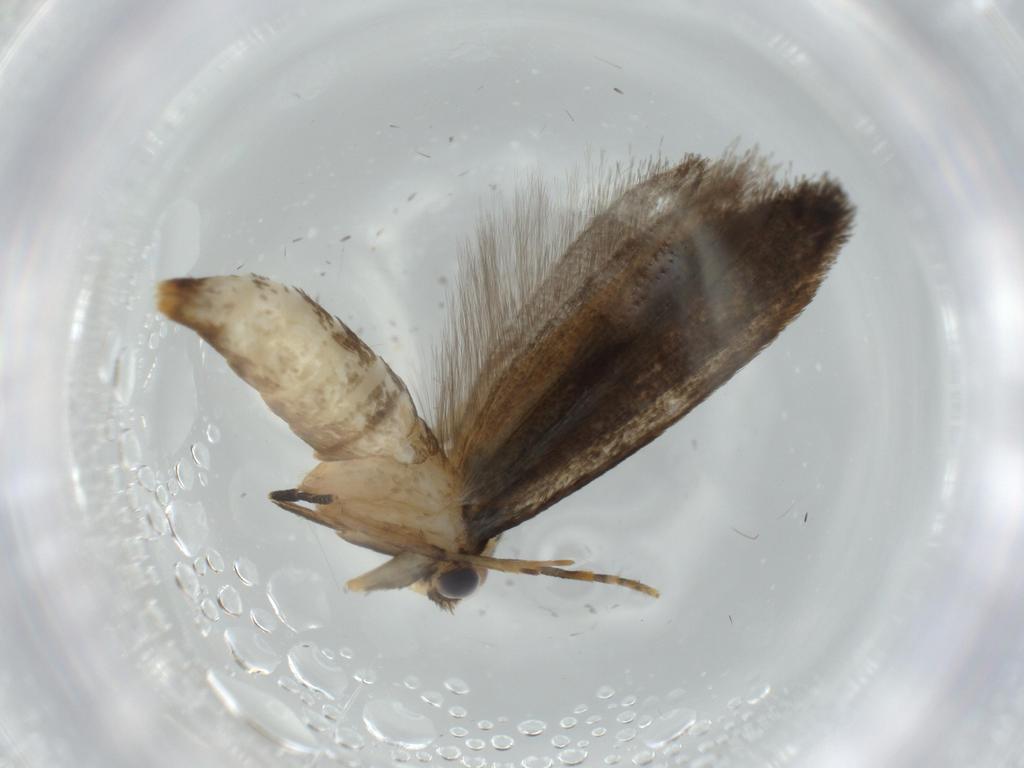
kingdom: Animalia
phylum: Arthropoda
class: Insecta
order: Lepidoptera
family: Tineidae
